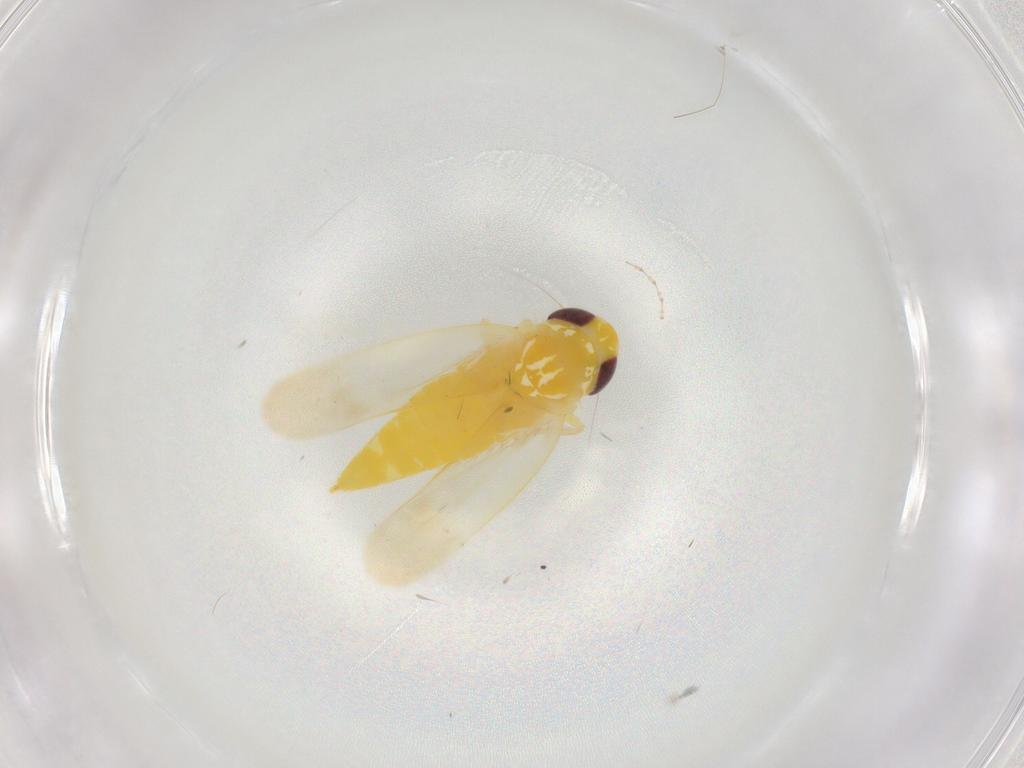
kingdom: Animalia
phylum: Arthropoda
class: Insecta
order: Hemiptera
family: Cicadellidae
